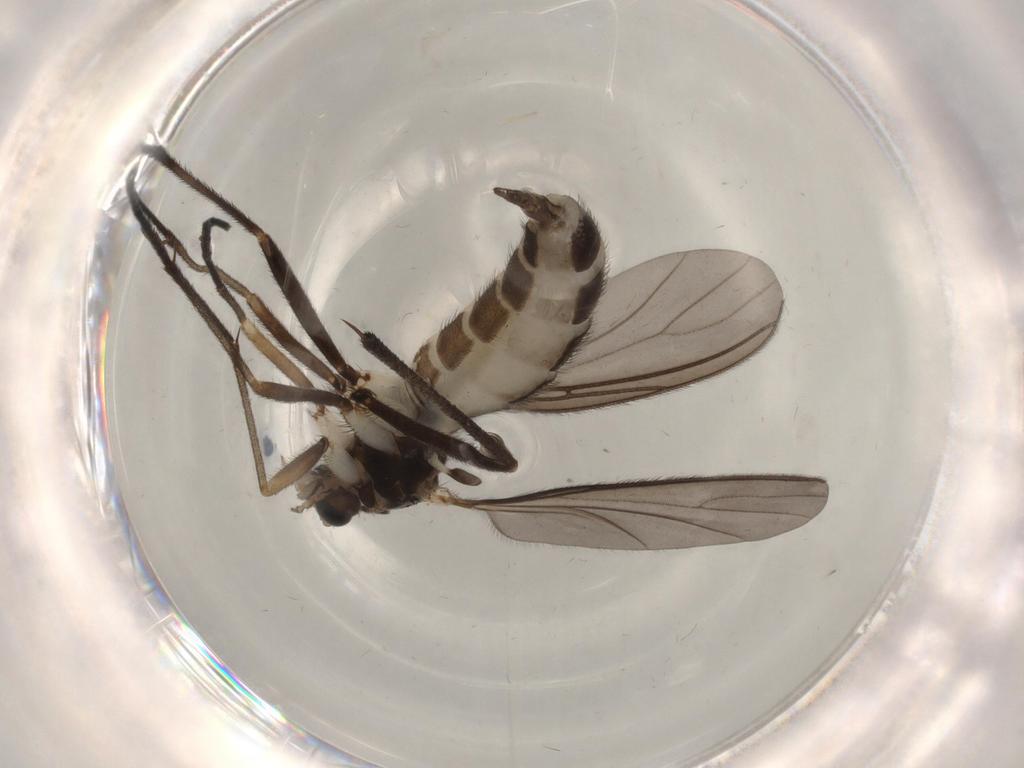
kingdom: Animalia
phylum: Arthropoda
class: Insecta
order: Diptera
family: Sciaridae
